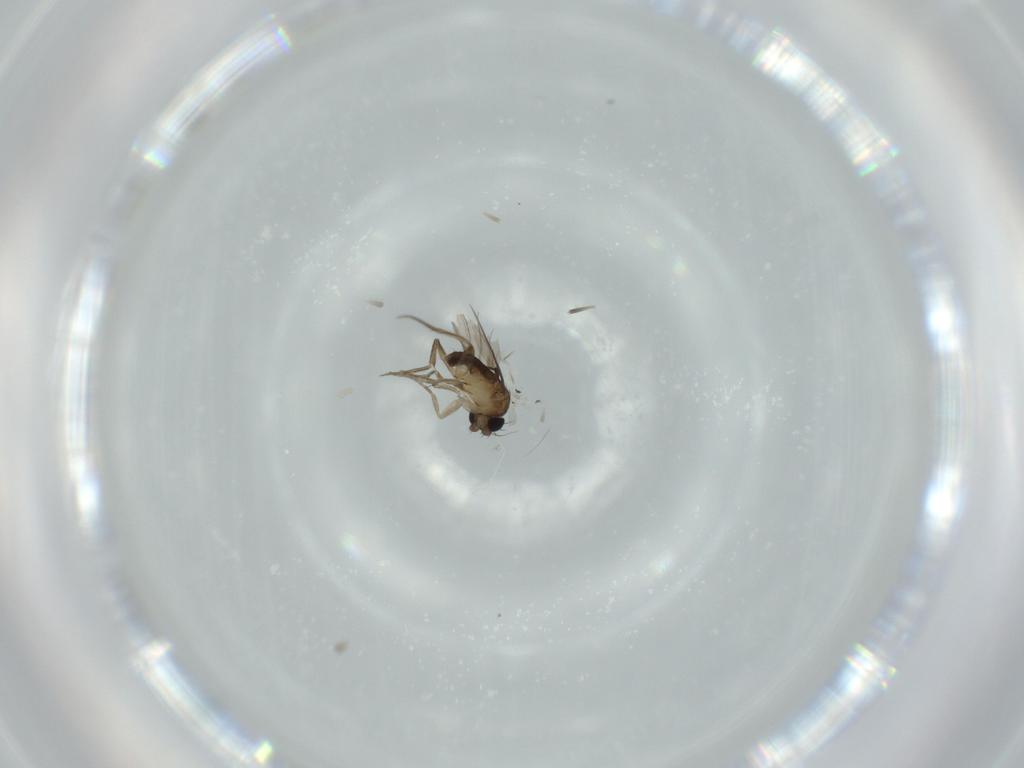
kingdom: Animalia
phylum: Arthropoda
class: Insecta
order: Diptera
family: Phoridae
